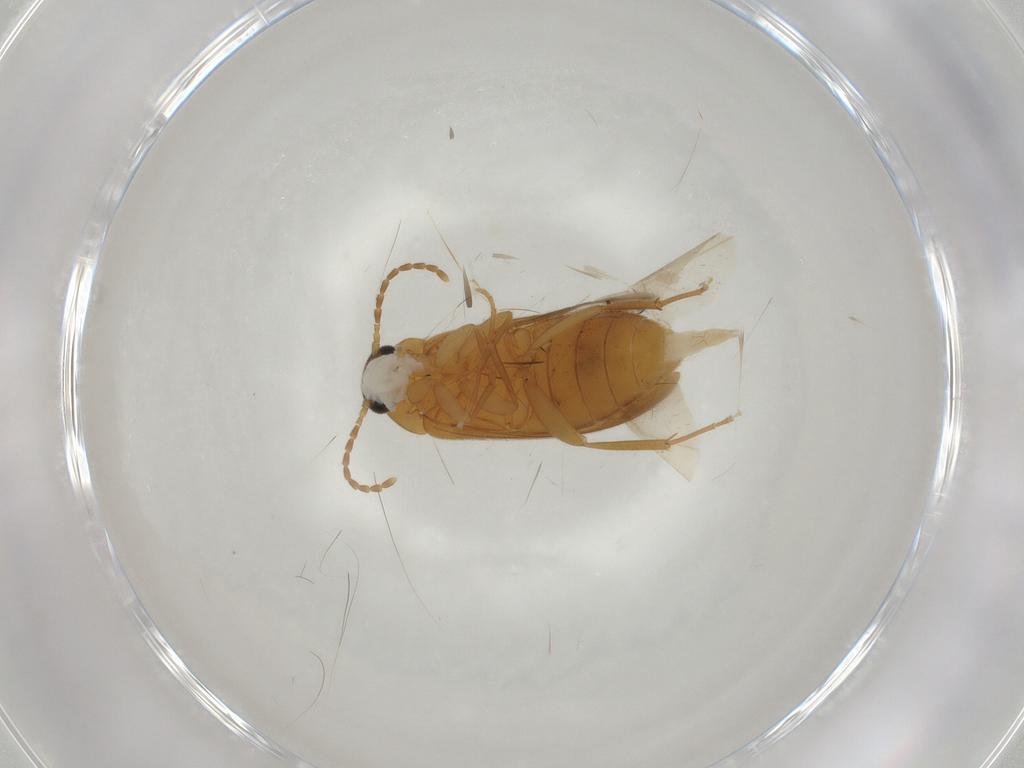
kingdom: Animalia
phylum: Arthropoda
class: Insecta
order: Coleoptera
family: Scraptiidae
